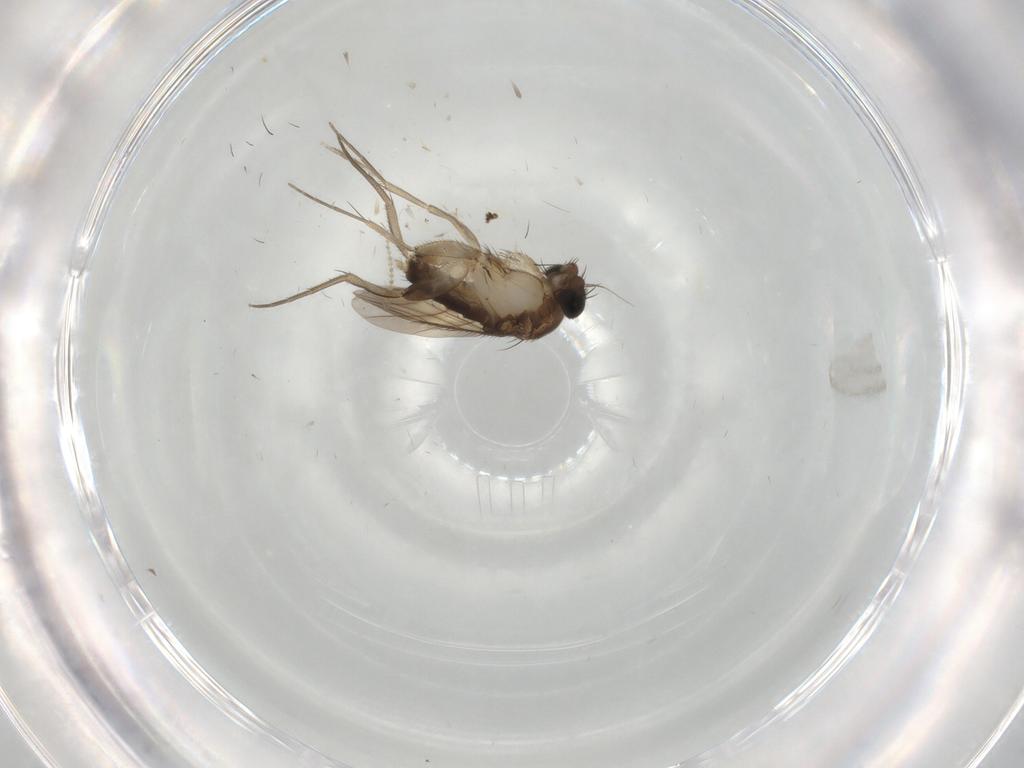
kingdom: Animalia
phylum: Arthropoda
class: Insecta
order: Diptera
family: Phoridae
